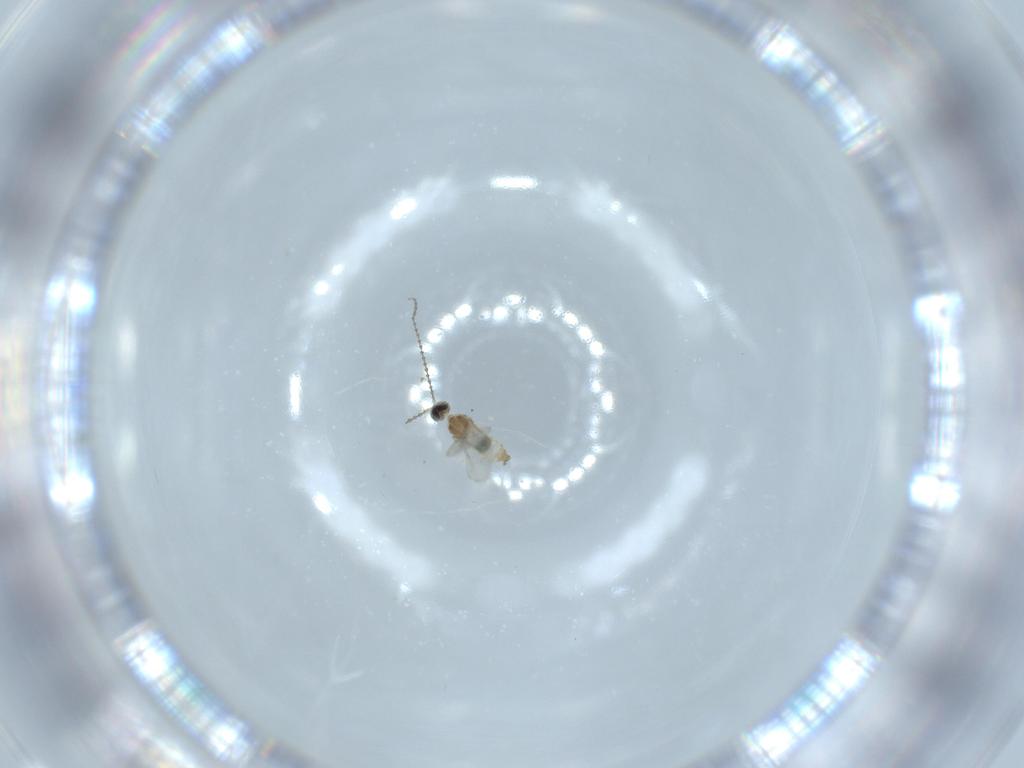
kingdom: Animalia
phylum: Arthropoda
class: Insecta
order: Diptera
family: Cecidomyiidae
